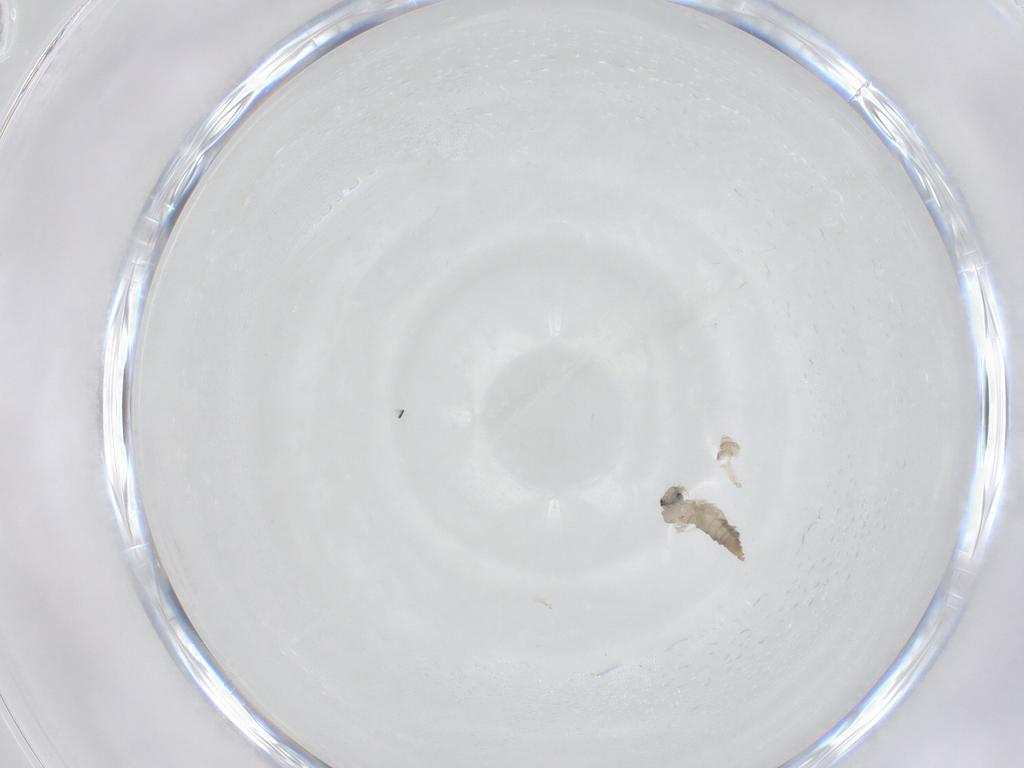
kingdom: Animalia
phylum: Arthropoda
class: Insecta
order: Diptera
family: Cecidomyiidae
